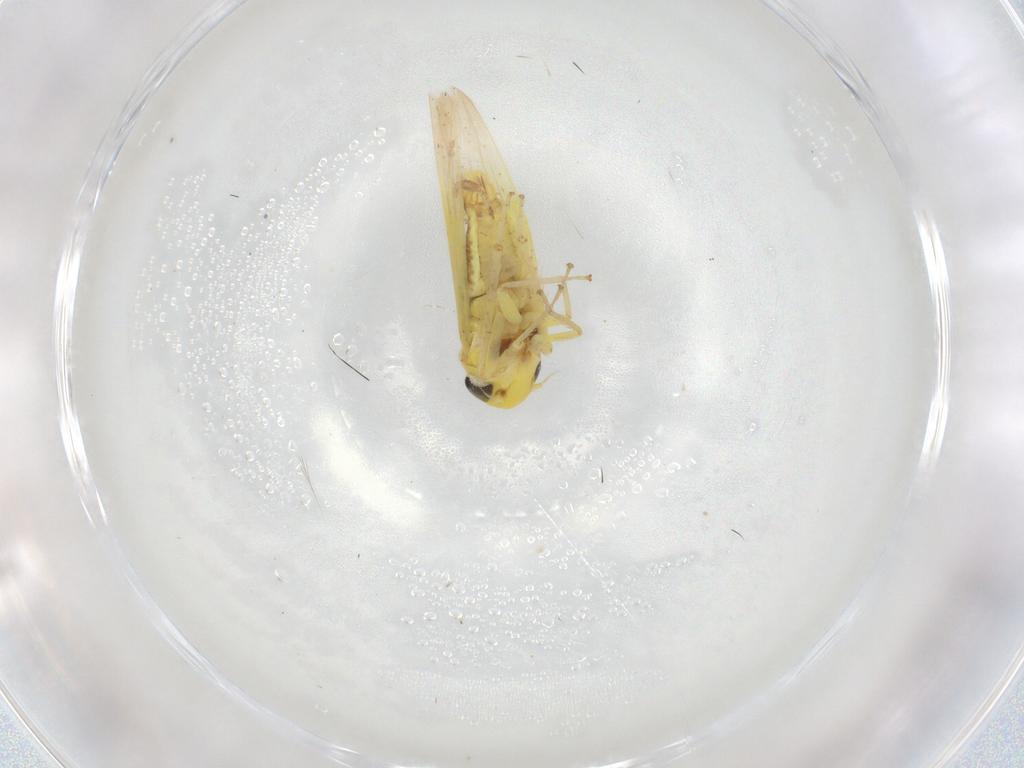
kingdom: Animalia
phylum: Arthropoda
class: Insecta
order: Hemiptera
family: Cicadellidae
